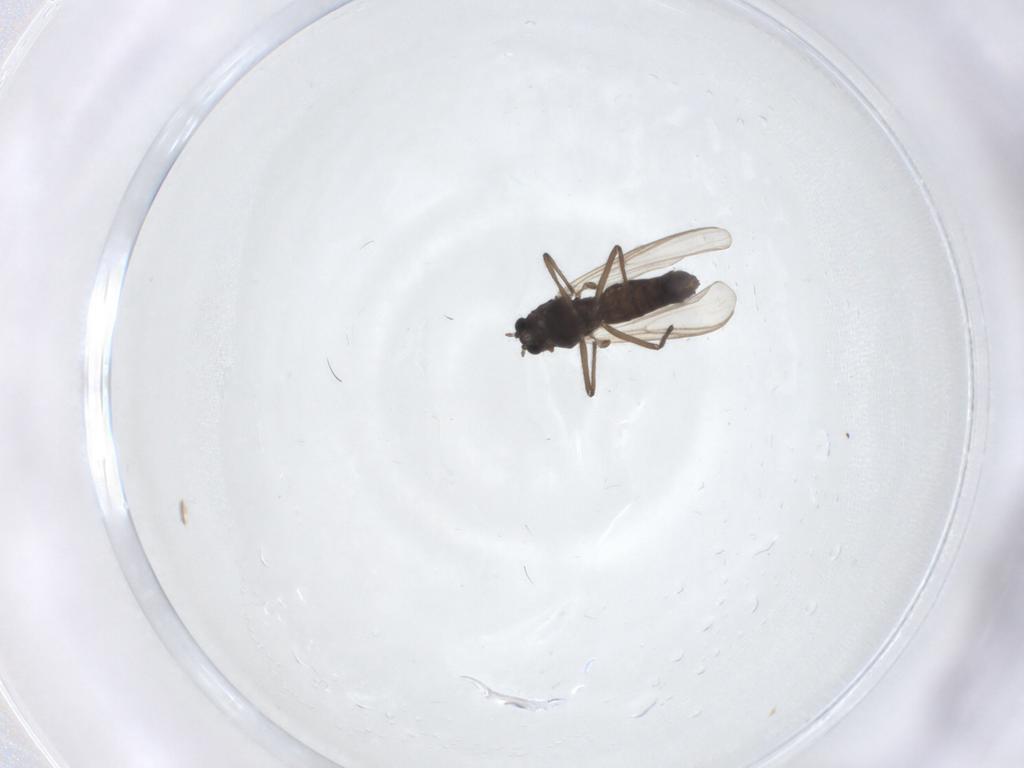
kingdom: Animalia
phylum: Arthropoda
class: Insecta
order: Diptera
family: Chironomidae
